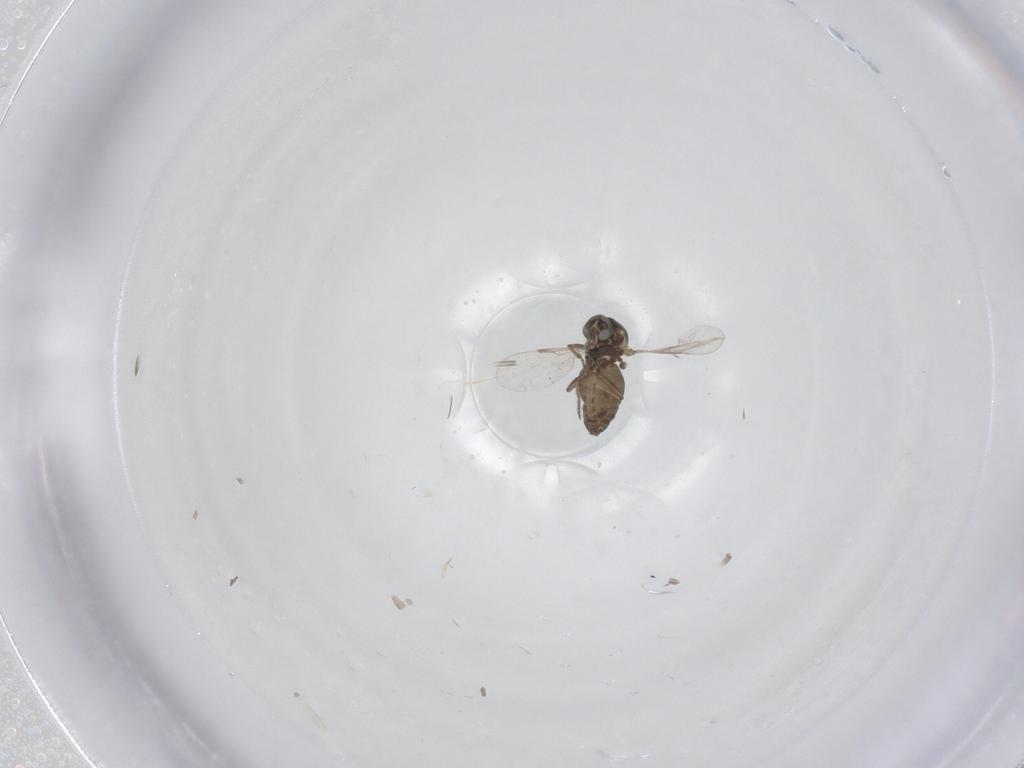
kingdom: Animalia
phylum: Arthropoda
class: Insecta
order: Diptera
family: Ceratopogonidae
